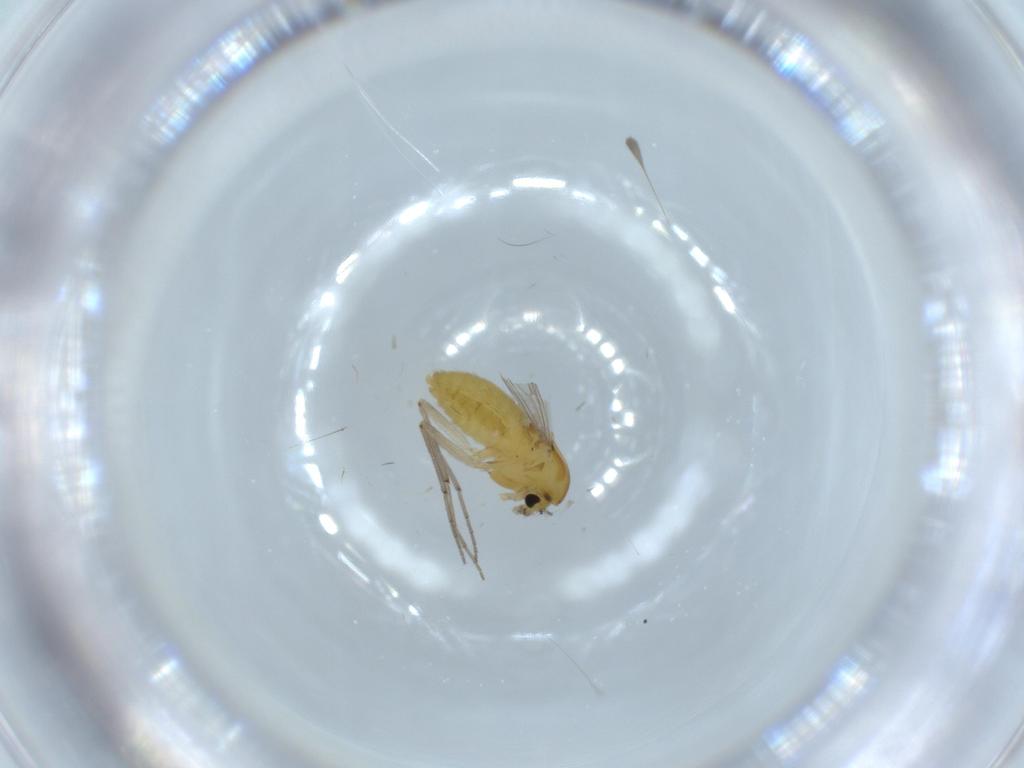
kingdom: Animalia
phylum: Arthropoda
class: Insecta
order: Diptera
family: Chironomidae
